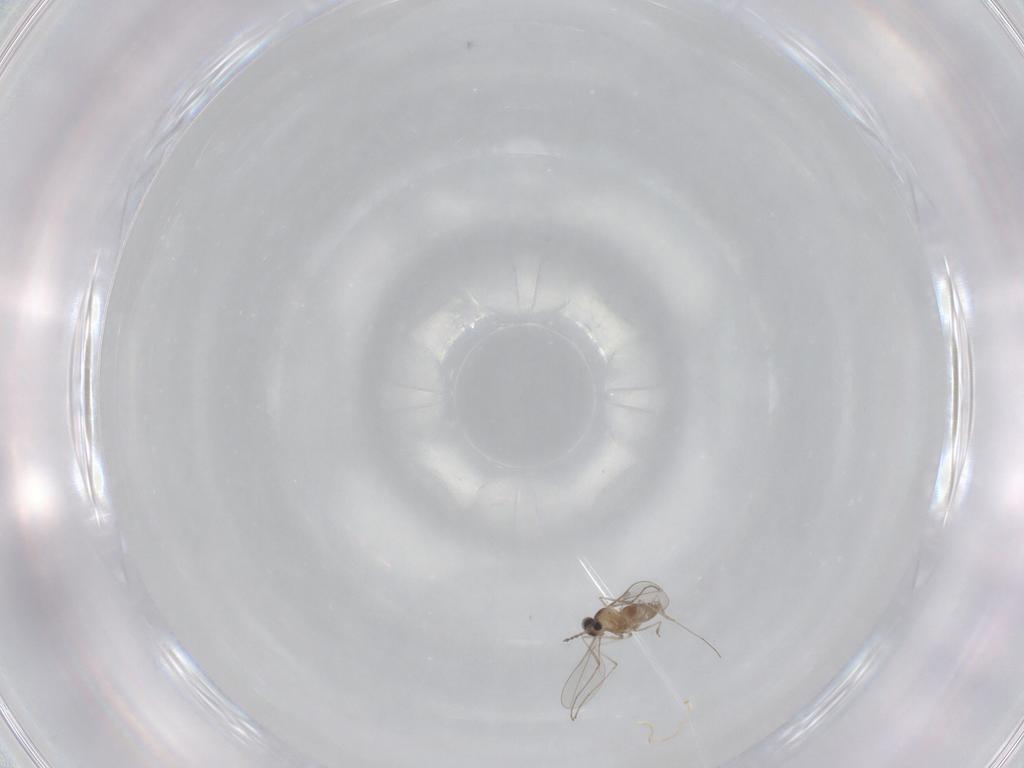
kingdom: Animalia
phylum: Arthropoda
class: Insecta
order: Diptera
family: Cecidomyiidae
